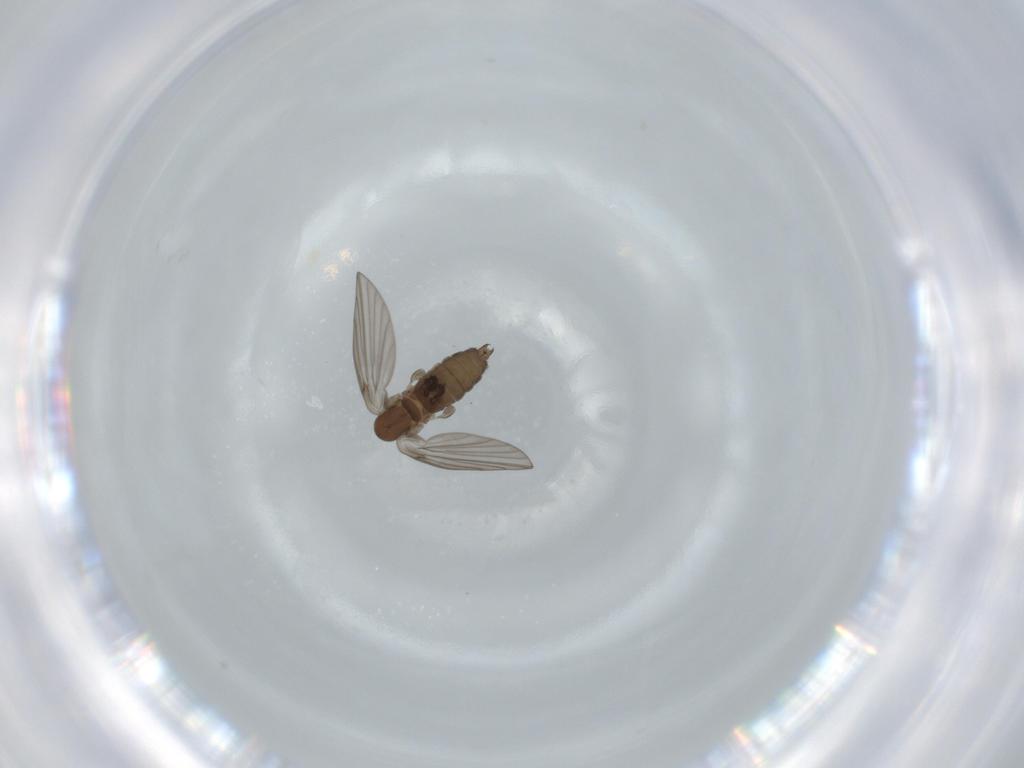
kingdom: Animalia
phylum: Arthropoda
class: Insecta
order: Diptera
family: Psychodidae
